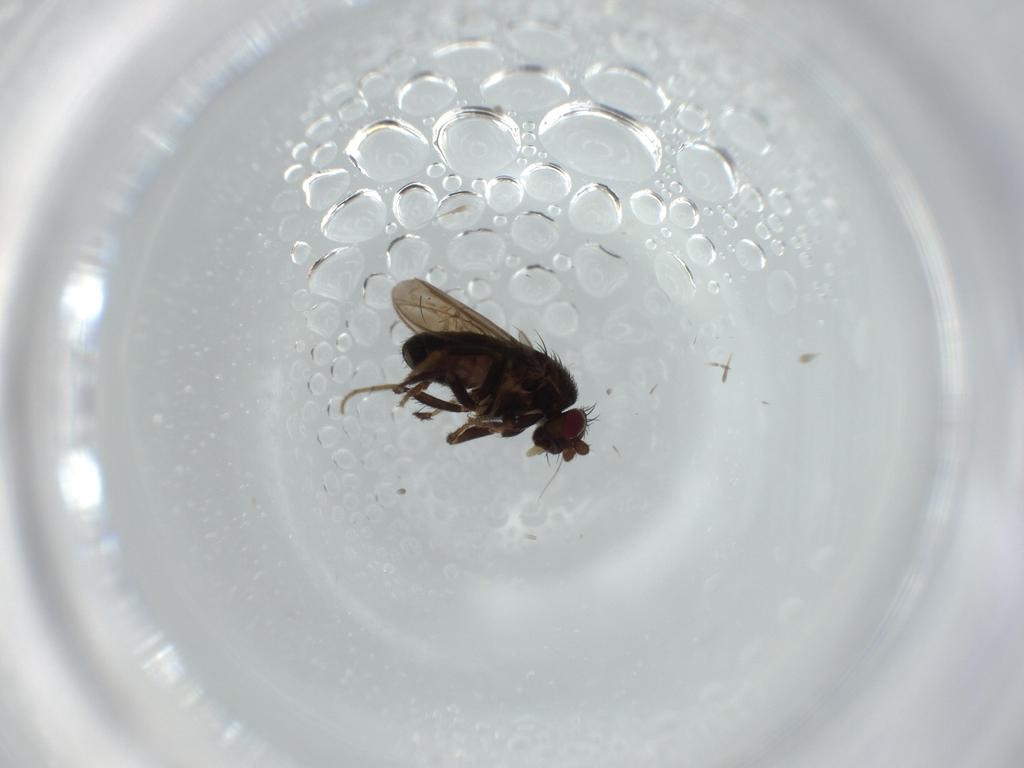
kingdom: Animalia
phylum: Arthropoda
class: Insecta
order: Diptera
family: Sphaeroceridae
